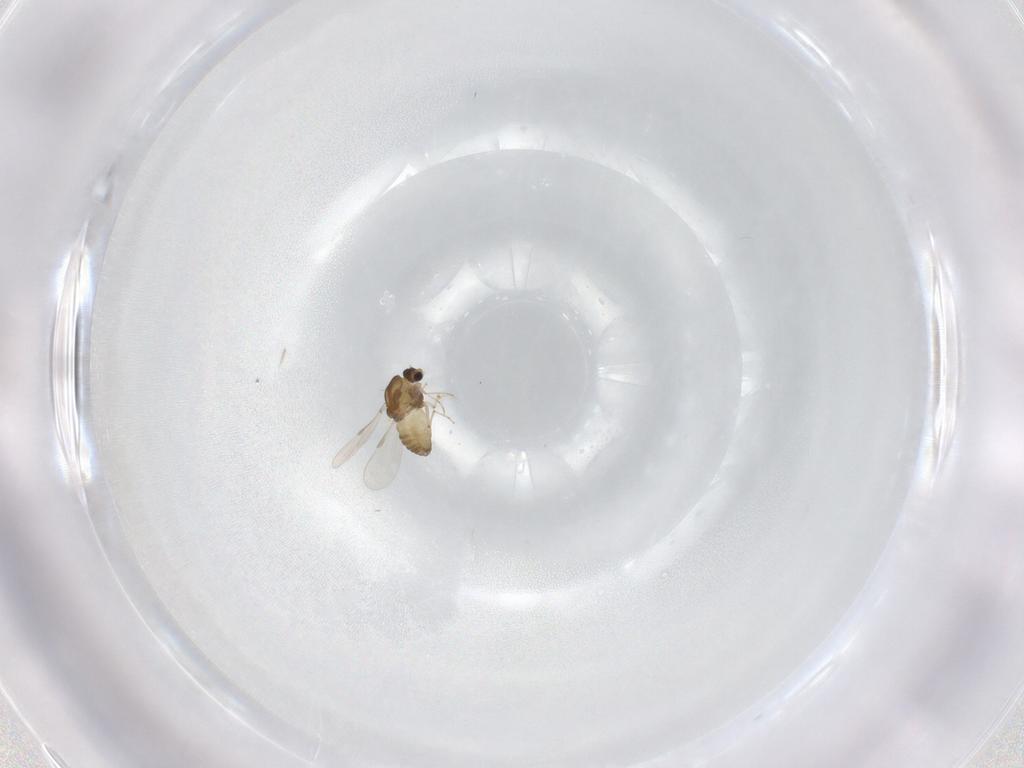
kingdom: Animalia
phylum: Arthropoda
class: Insecta
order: Diptera
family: Chironomidae
